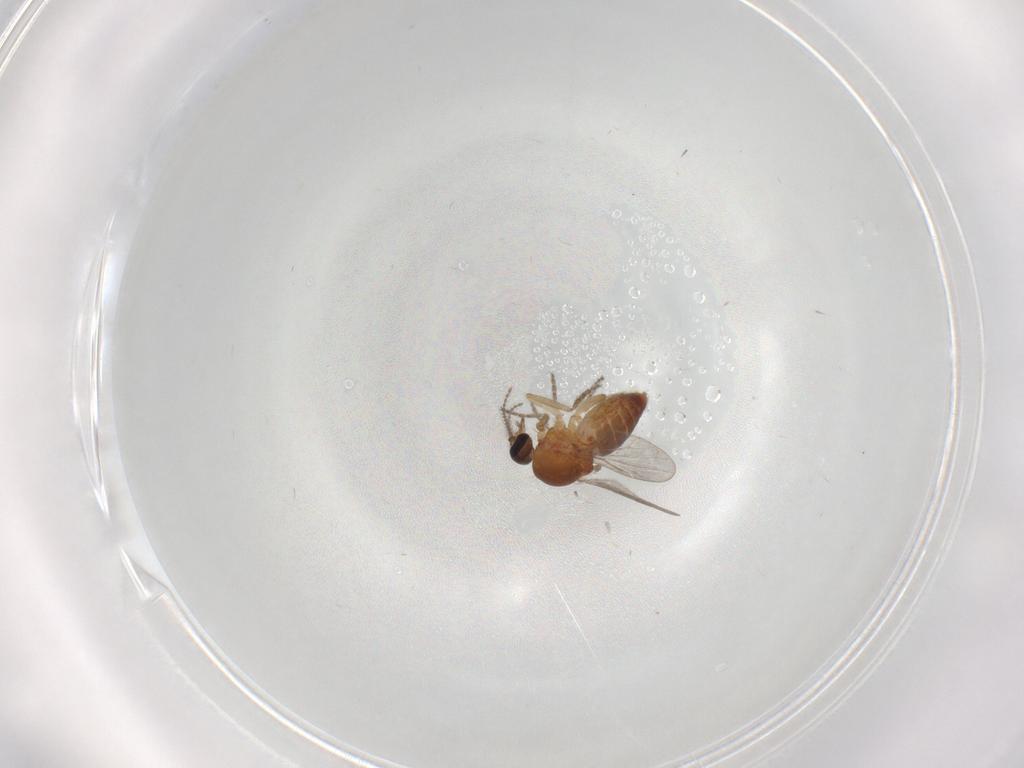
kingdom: Animalia
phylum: Arthropoda
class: Insecta
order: Diptera
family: Ceratopogonidae
